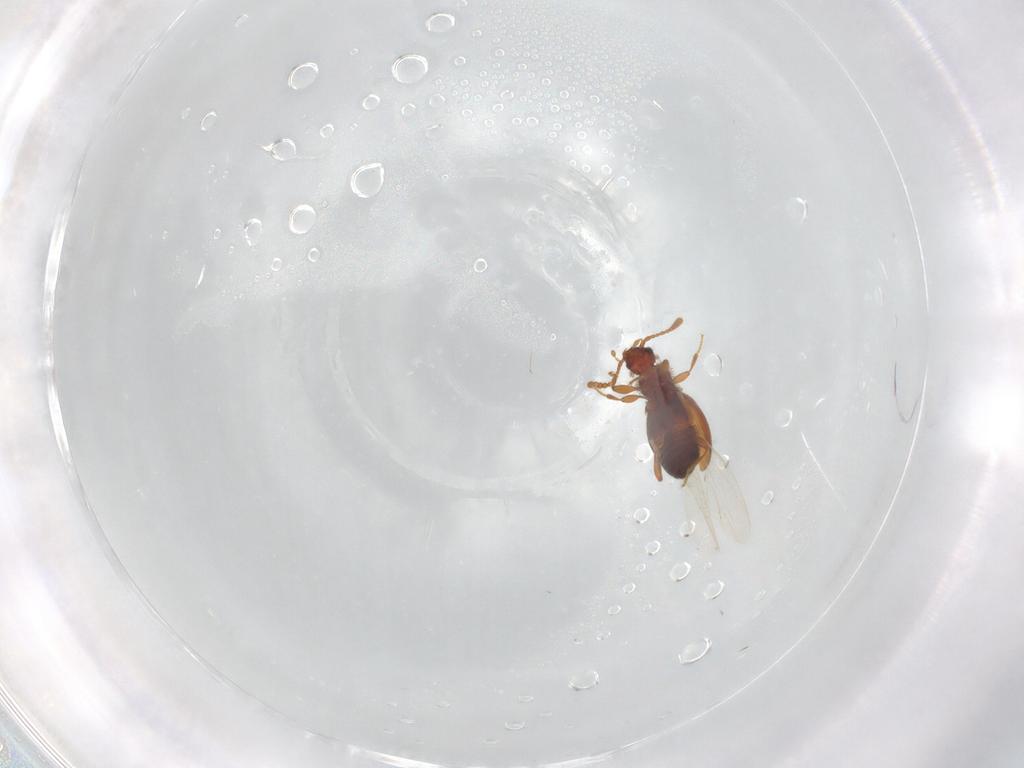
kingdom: Animalia
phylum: Arthropoda
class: Insecta
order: Coleoptera
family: Staphylinidae
